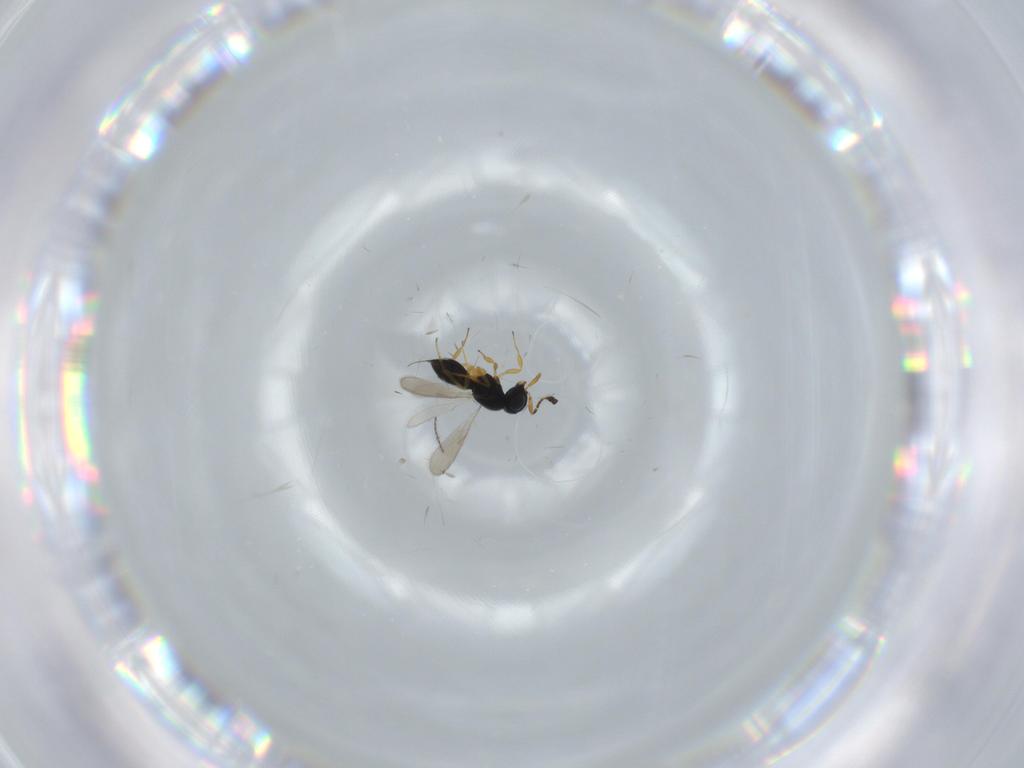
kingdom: Animalia
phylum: Arthropoda
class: Insecta
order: Hymenoptera
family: Scelionidae
